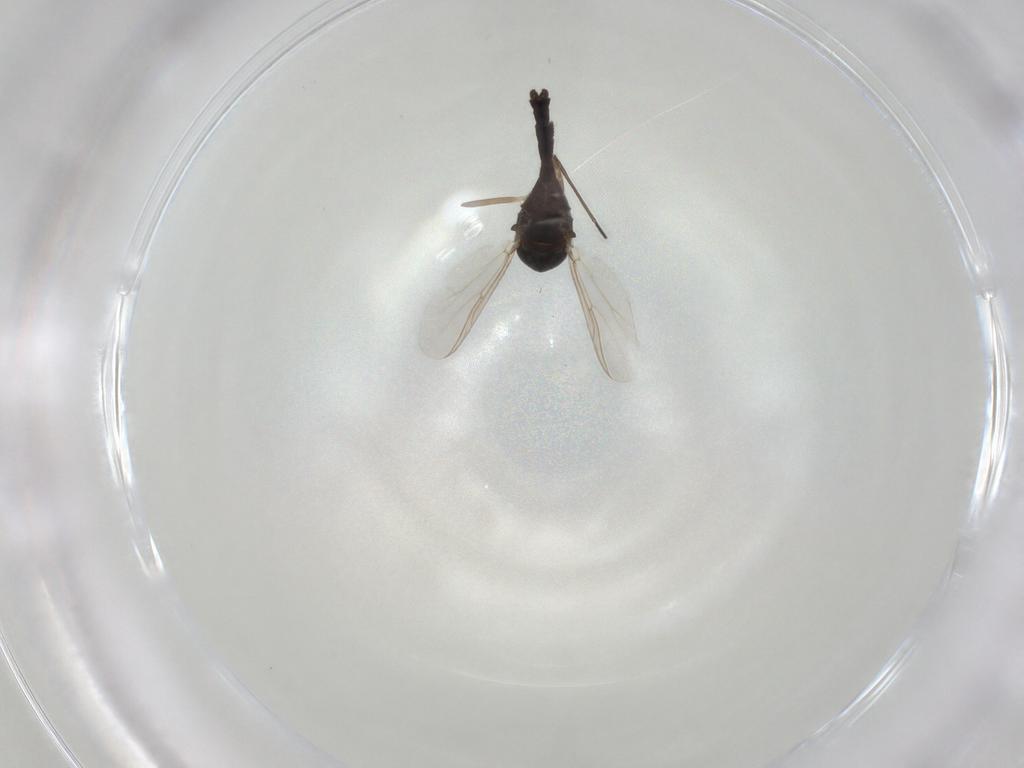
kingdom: Animalia
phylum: Arthropoda
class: Insecta
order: Diptera
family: Chironomidae
